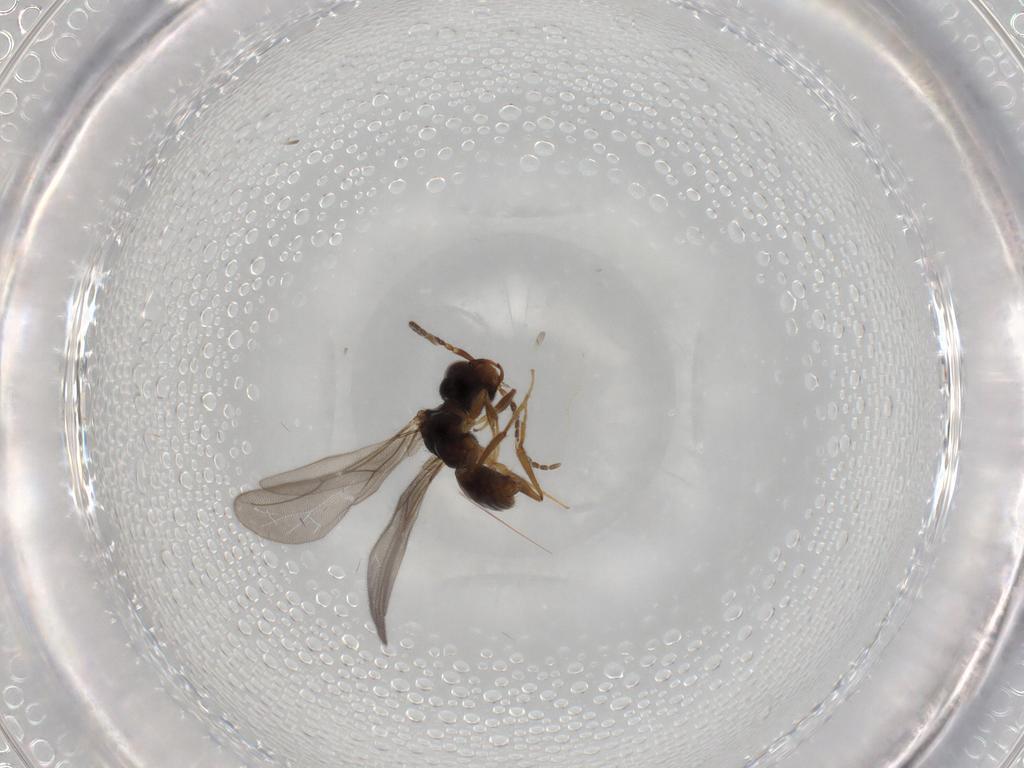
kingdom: Animalia
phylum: Arthropoda
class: Insecta
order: Hymenoptera
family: Bethylidae
